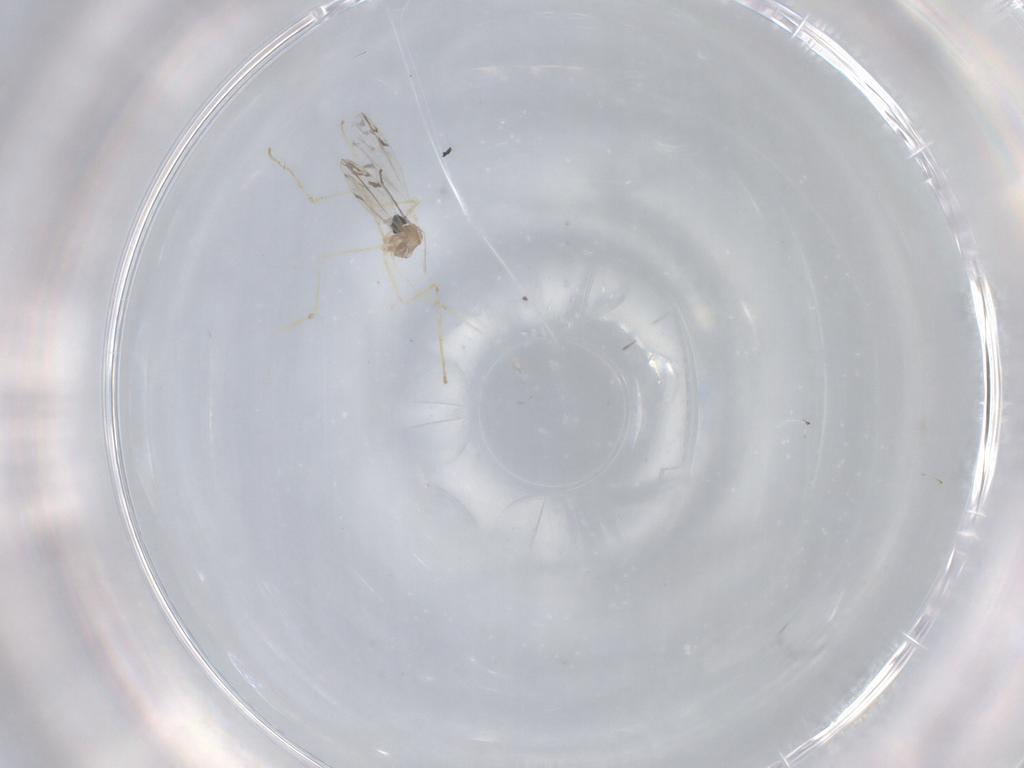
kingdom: Animalia
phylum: Arthropoda
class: Insecta
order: Diptera
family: Cecidomyiidae
